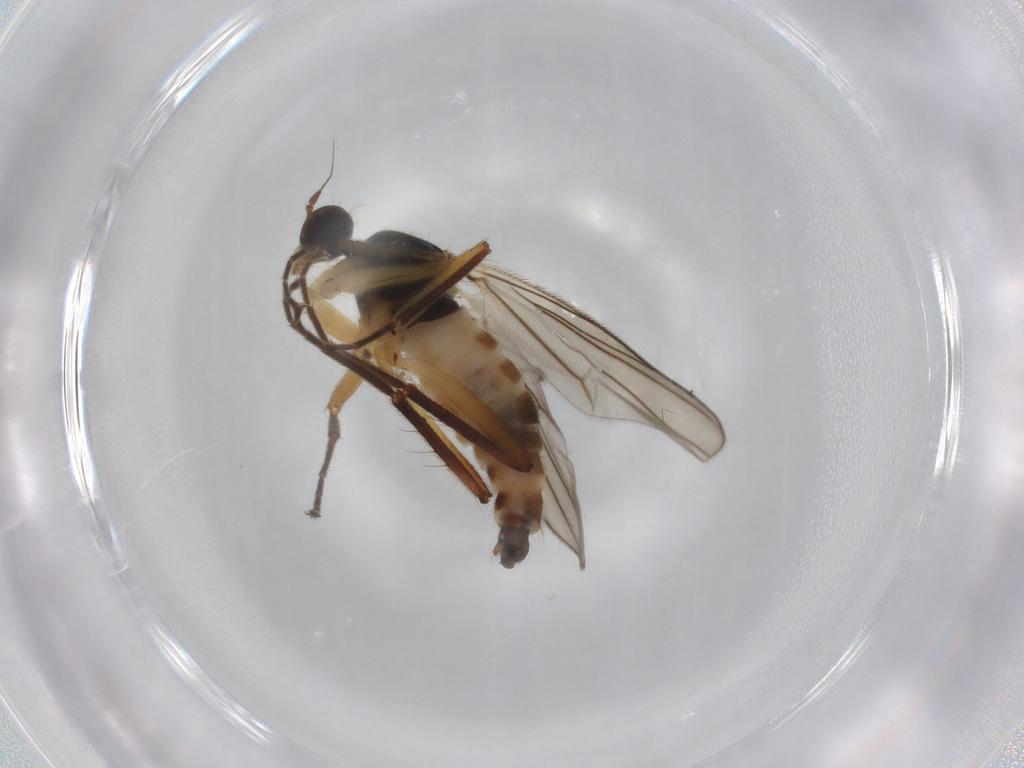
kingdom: Animalia
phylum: Arthropoda
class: Insecta
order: Diptera
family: Hybotidae
